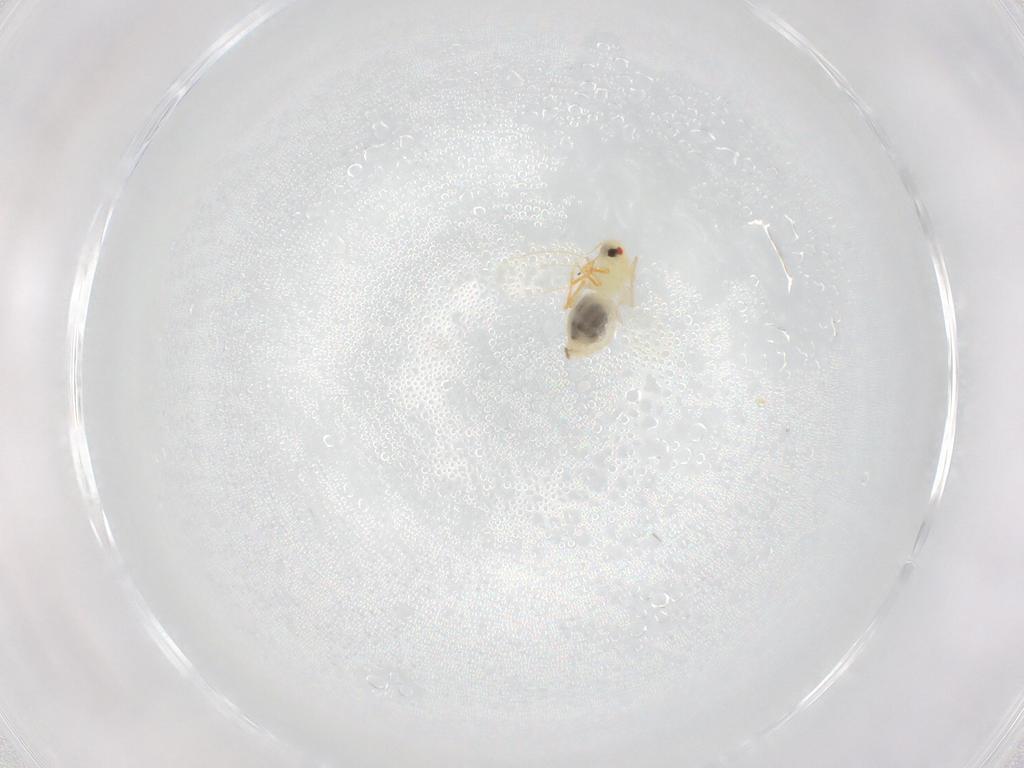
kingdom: Animalia
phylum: Arthropoda
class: Insecta
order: Hemiptera
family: Aleyrodidae
